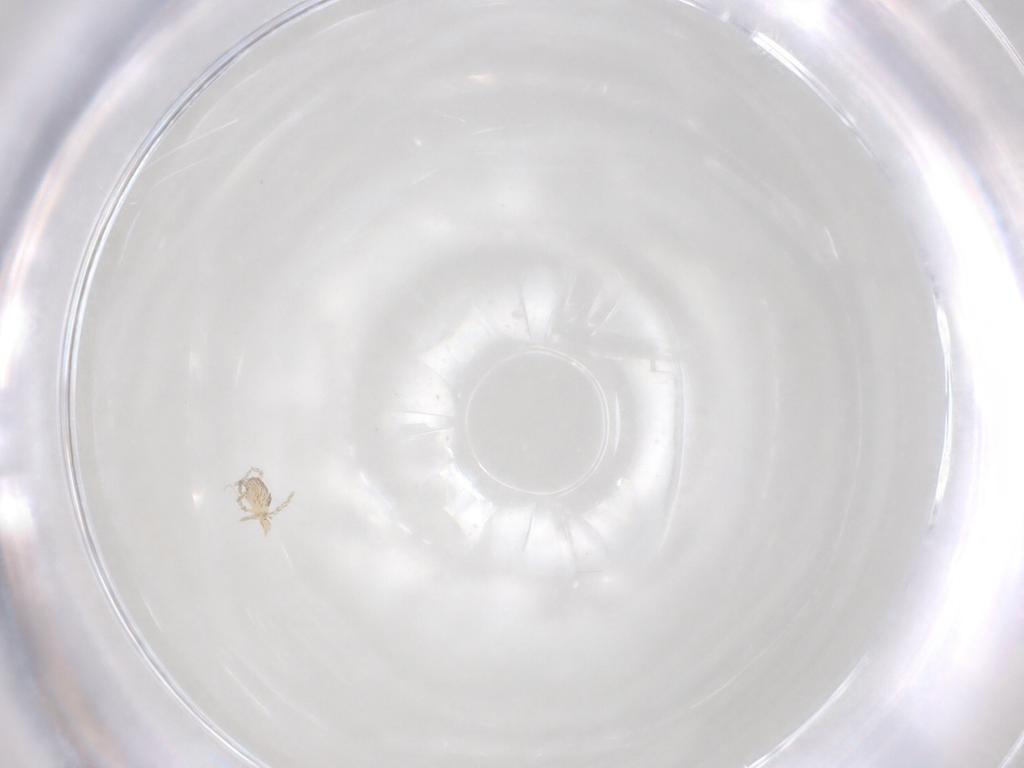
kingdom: Animalia
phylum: Arthropoda
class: Arachnida
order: Trombidiformes
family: Erythraeidae
